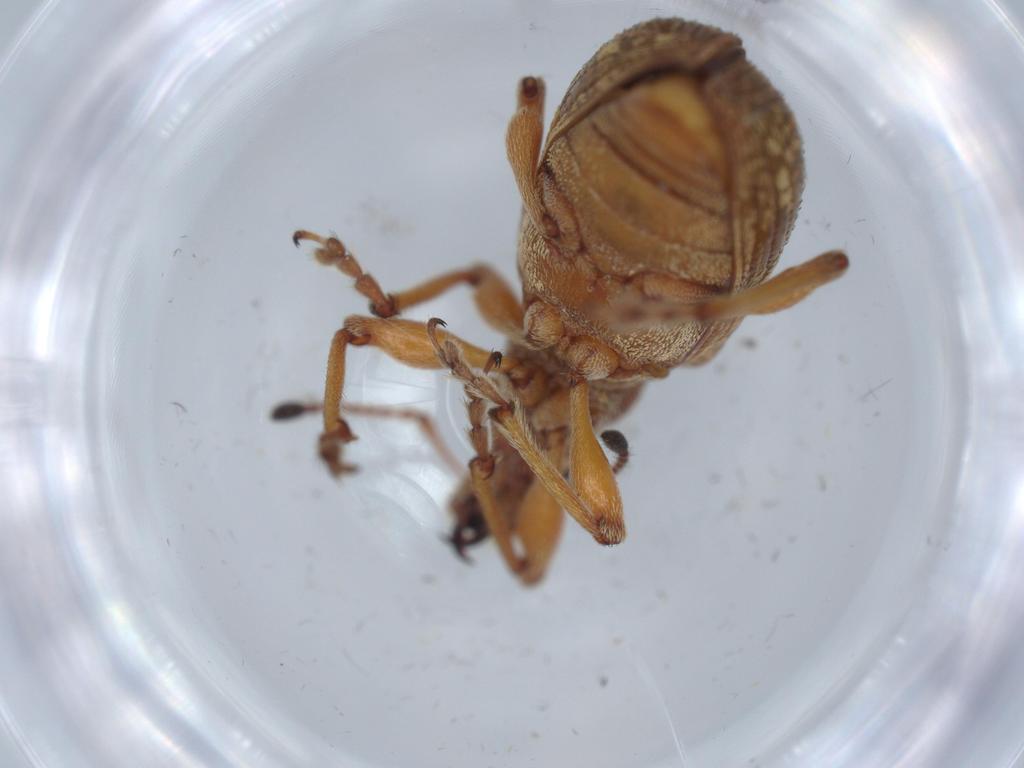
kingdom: Animalia
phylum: Arthropoda
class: Insecta
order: Coleoptera
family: Curculionidae
